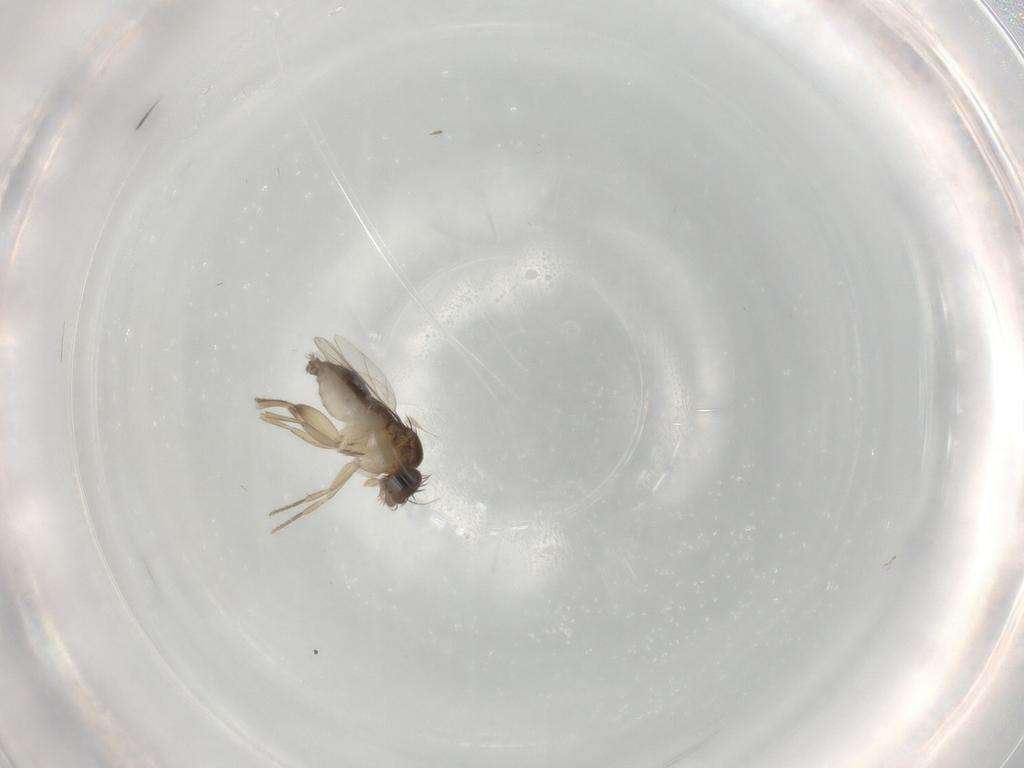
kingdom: Animalia
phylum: Arthropoda
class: Insecta
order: Diptera
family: Phoridae
